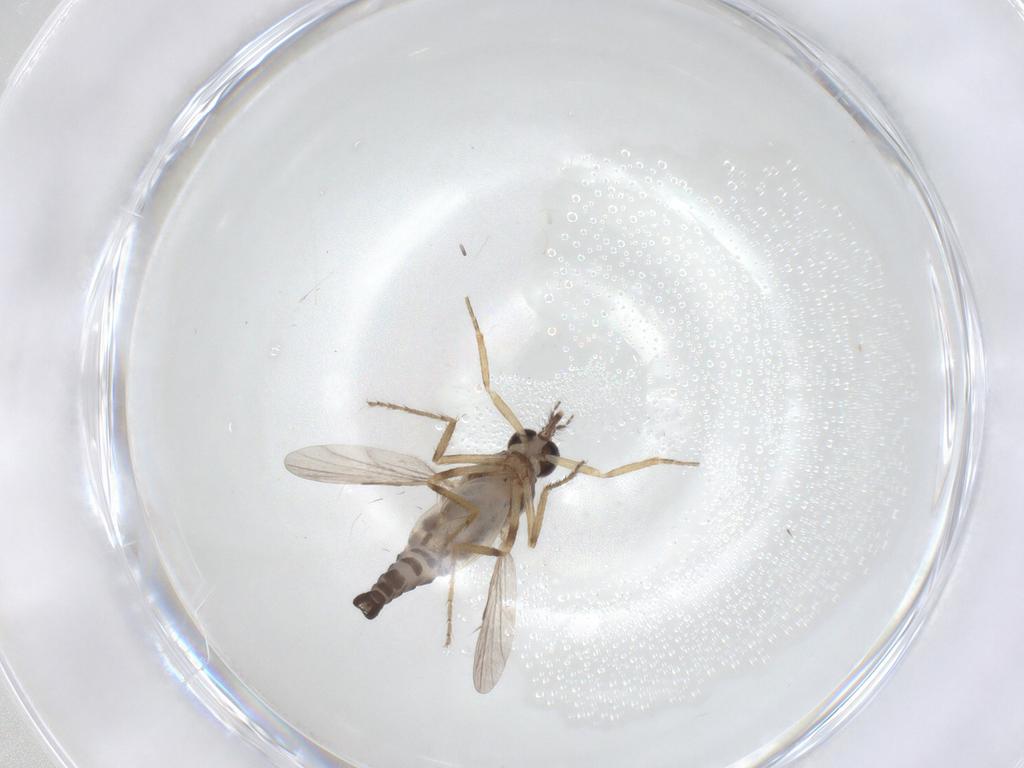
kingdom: Animalia
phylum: Arthropoda
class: Insecta
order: Diptera
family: Ceratopogonidae
